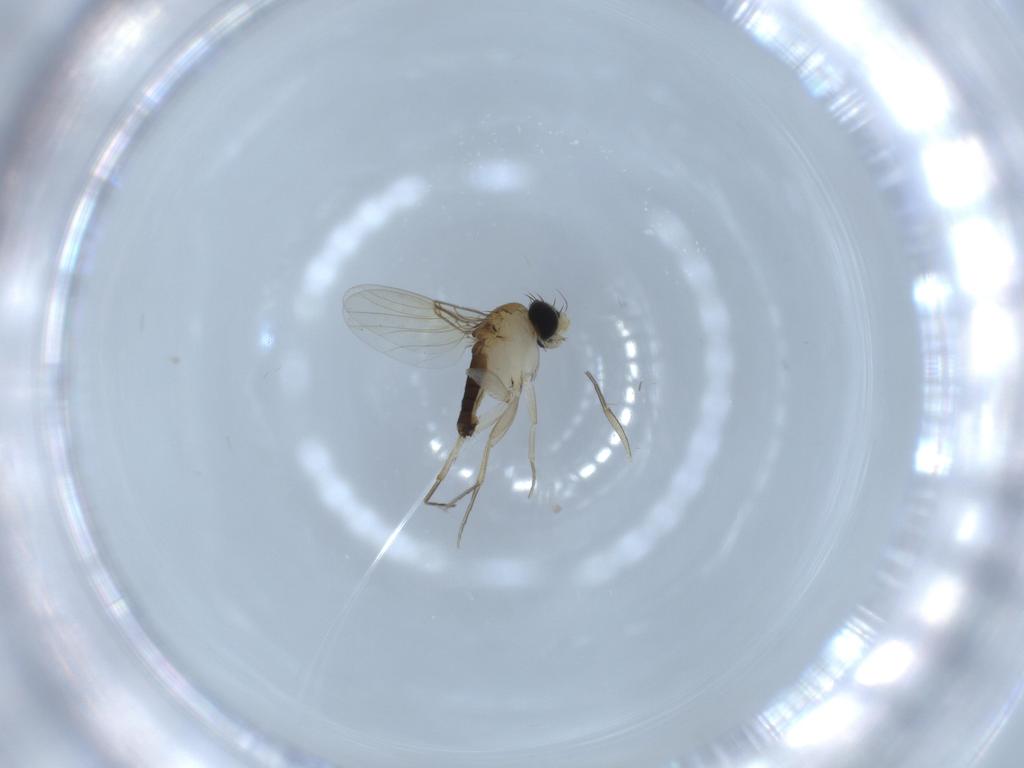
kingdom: Animalia
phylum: Arthropoda
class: Insecta
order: Diptera
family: Phoridae
